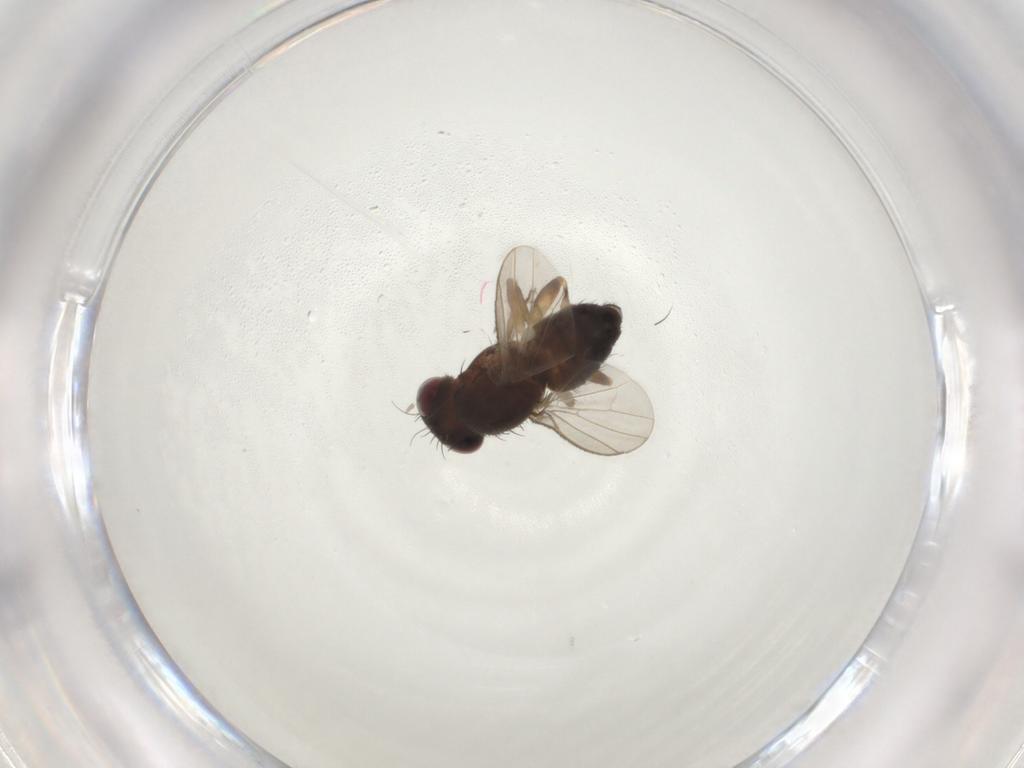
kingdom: Animalia
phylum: Arthropoda
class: Insecta
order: Diptera
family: Heleomyzidae
